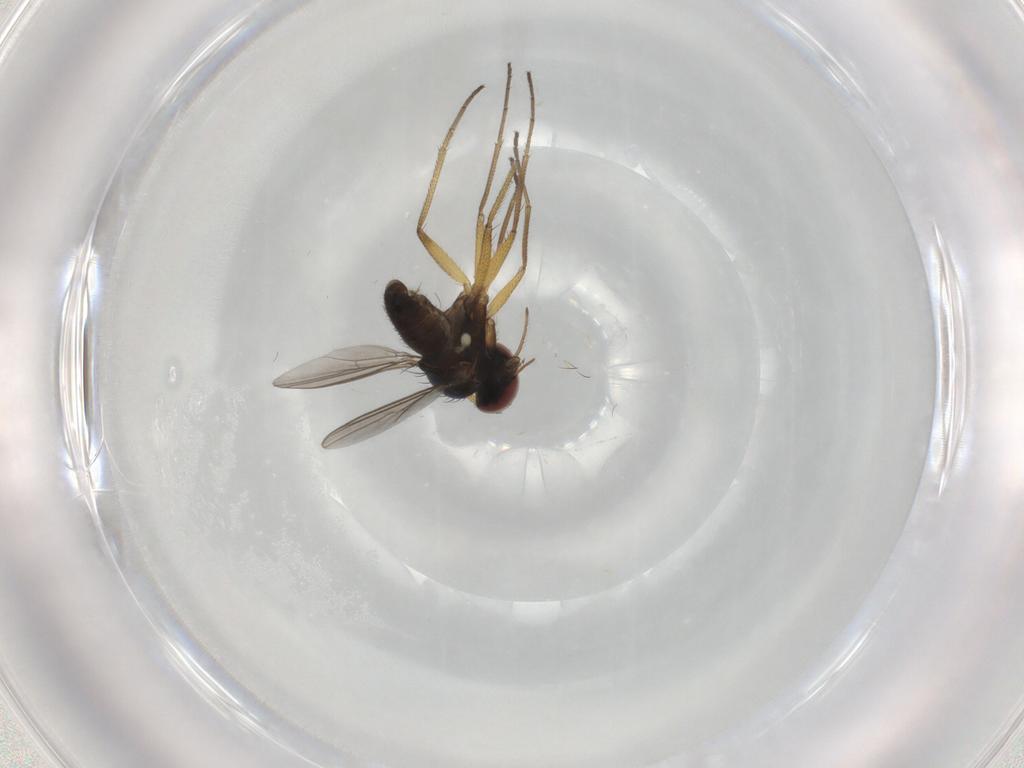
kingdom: Animalia
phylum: Arthropoda
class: Insecta
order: Diptera
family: Dolichopodidae
